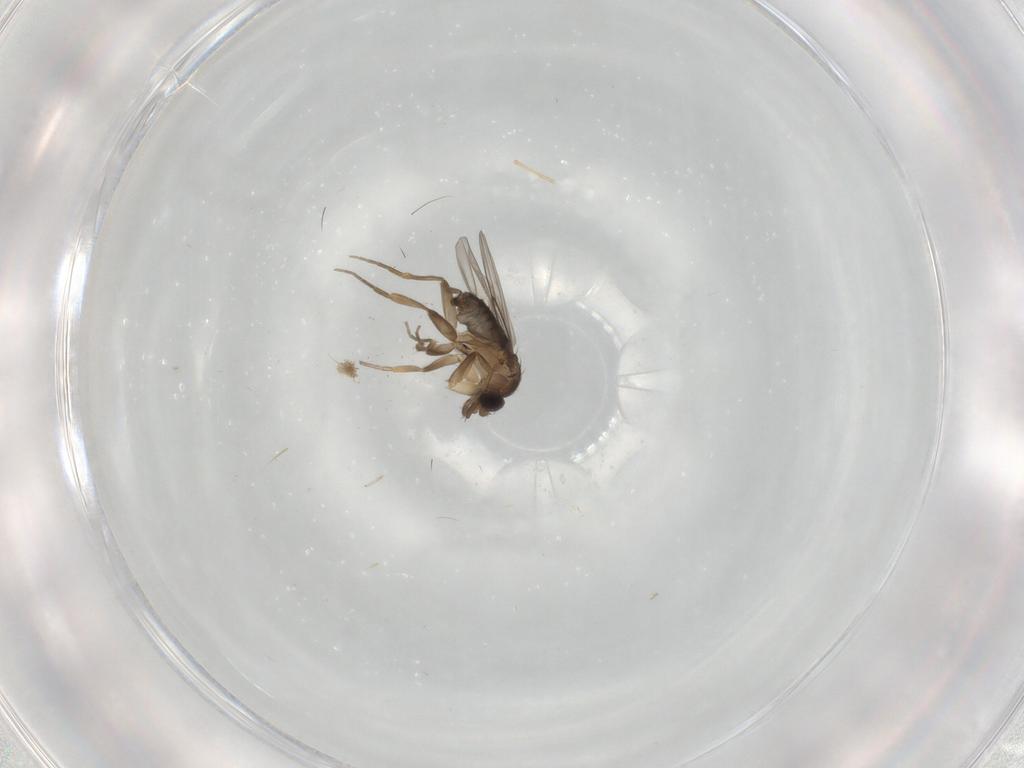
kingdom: Animalia
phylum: Arthropoda
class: Insecta
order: Diptera
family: Phoridae
